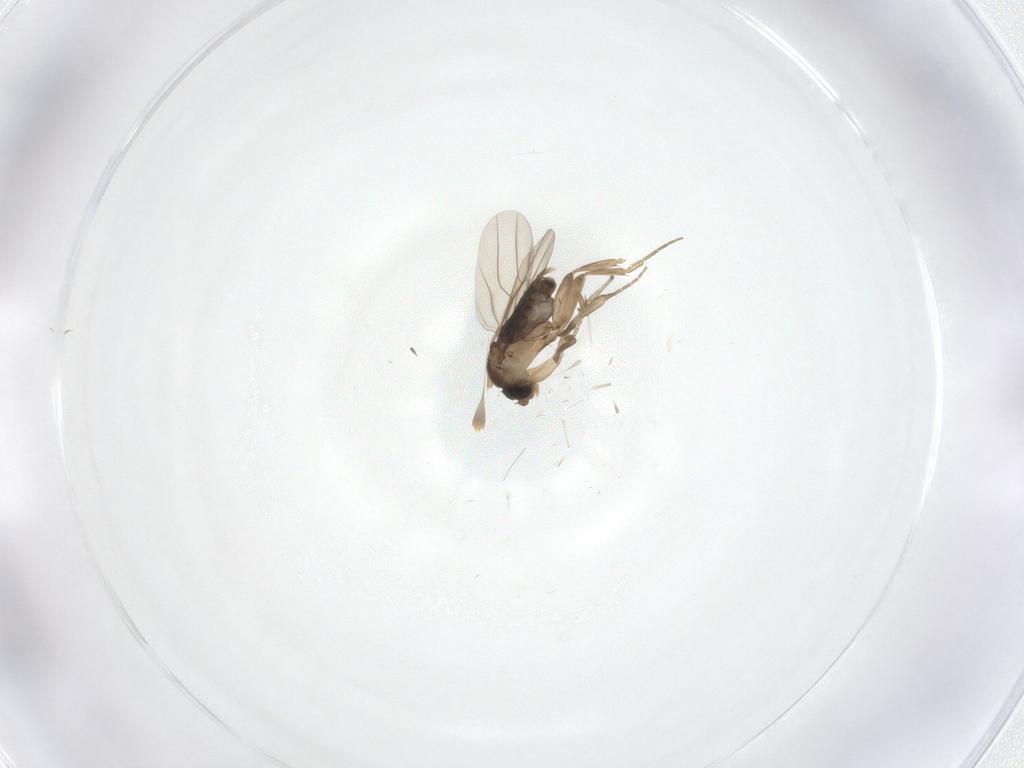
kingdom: Animalia
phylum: Arthropoda
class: Insecta
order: Diptera
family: Phoridae
